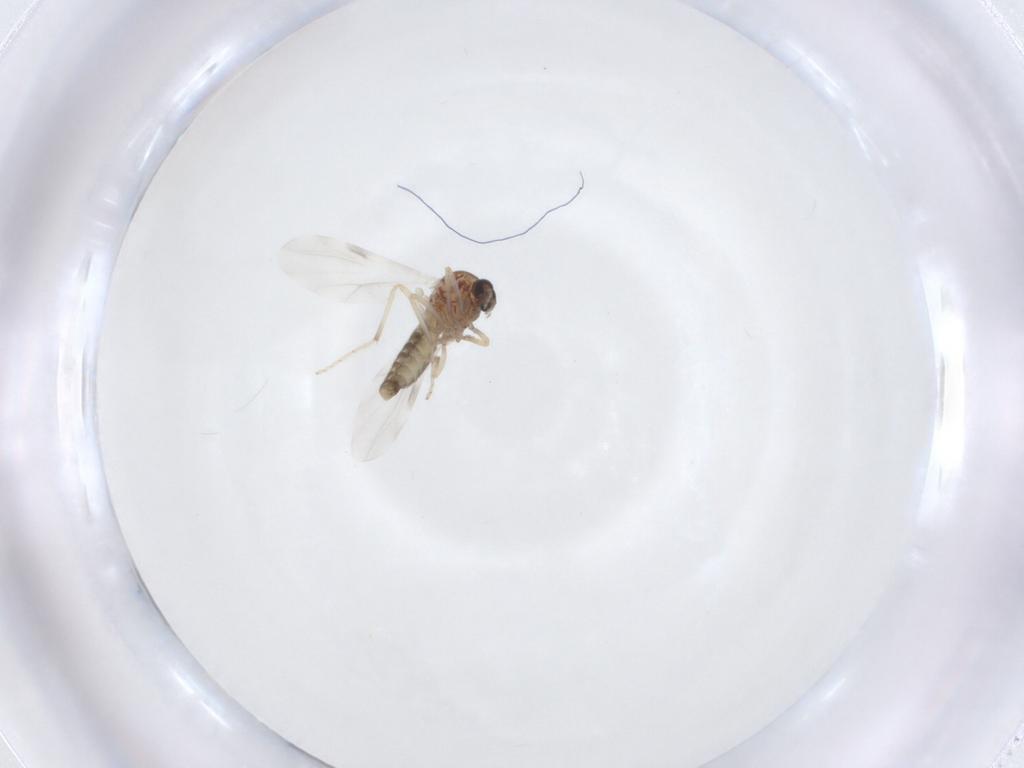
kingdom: Animalia
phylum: Arthropoda
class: Insecta
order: Diptera
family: Ceratopogonidae
